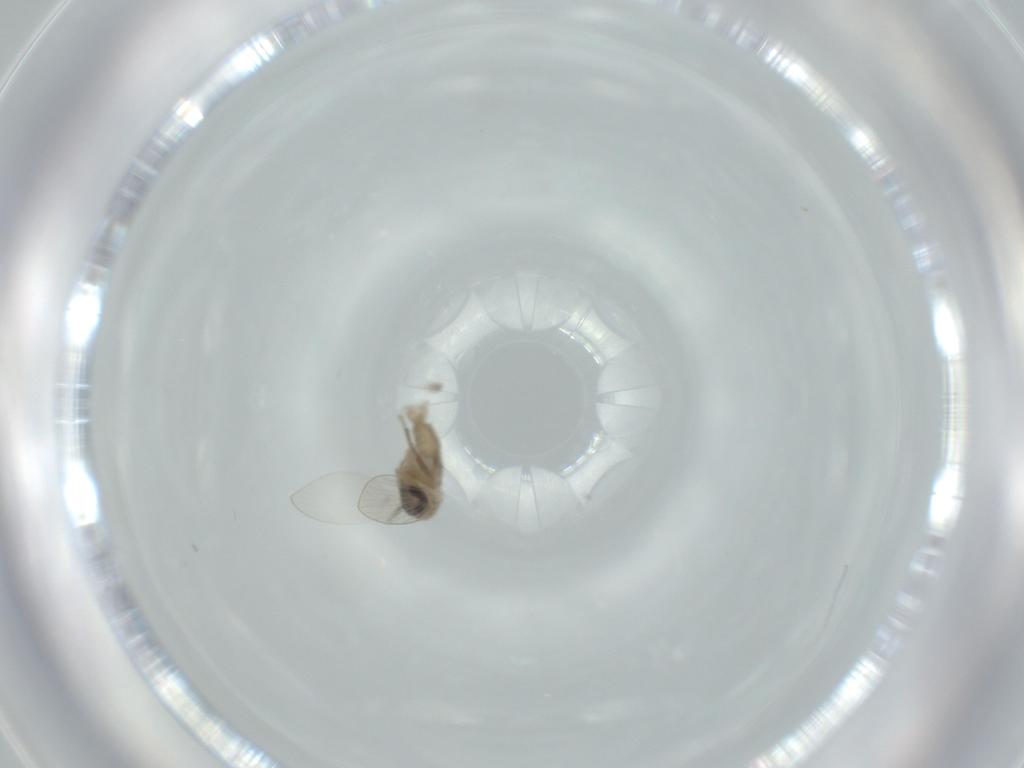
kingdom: Animalia
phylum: Arthropoda
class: Insecta
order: Diptera
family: Psychodidae
